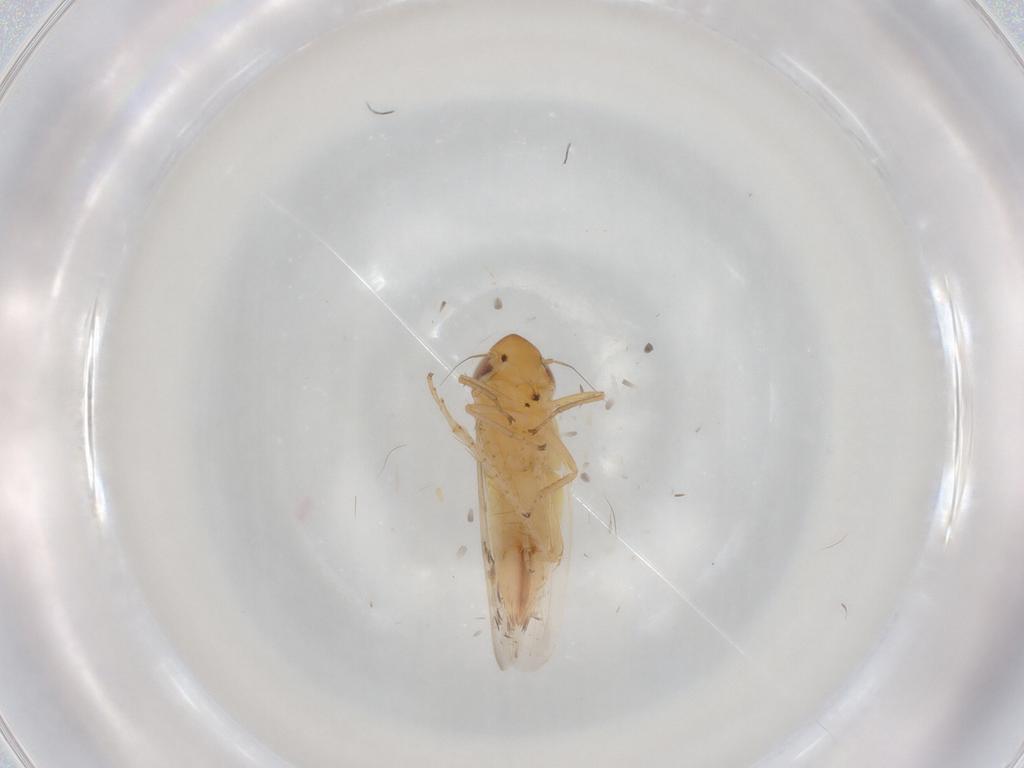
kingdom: Animalia
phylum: Arthropoda
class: Insecta
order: Hemiptera
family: Cicadellidae
